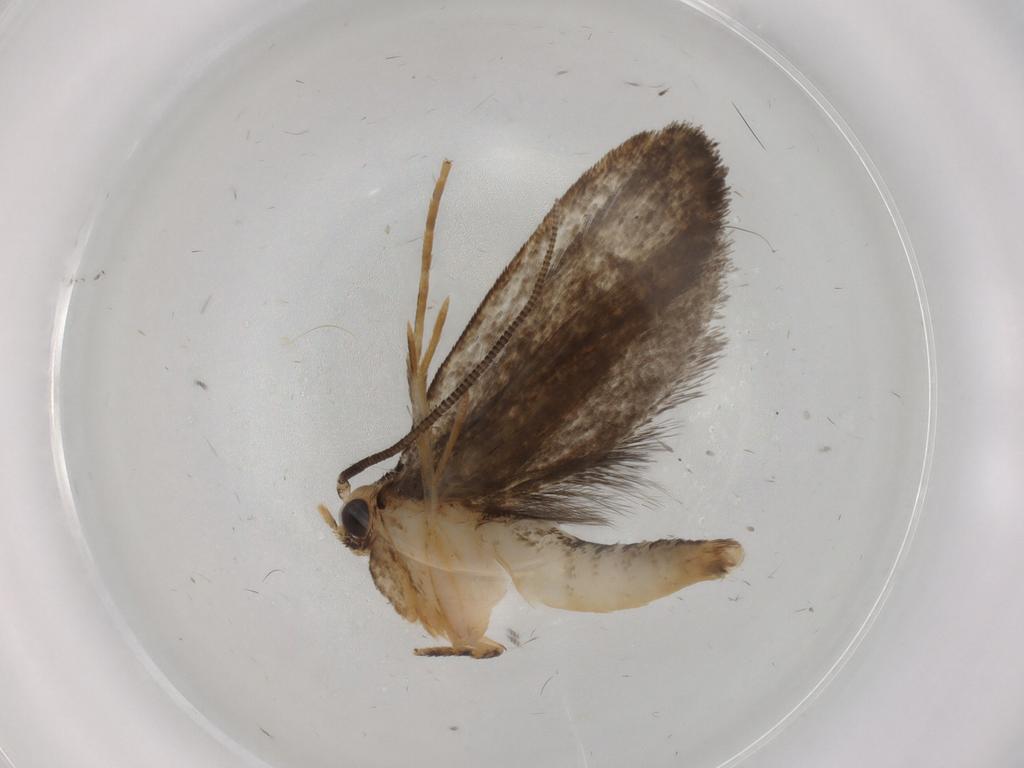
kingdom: Animalia
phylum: Arthropoda
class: Insecta
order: Lepidoptera
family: Tineidae
